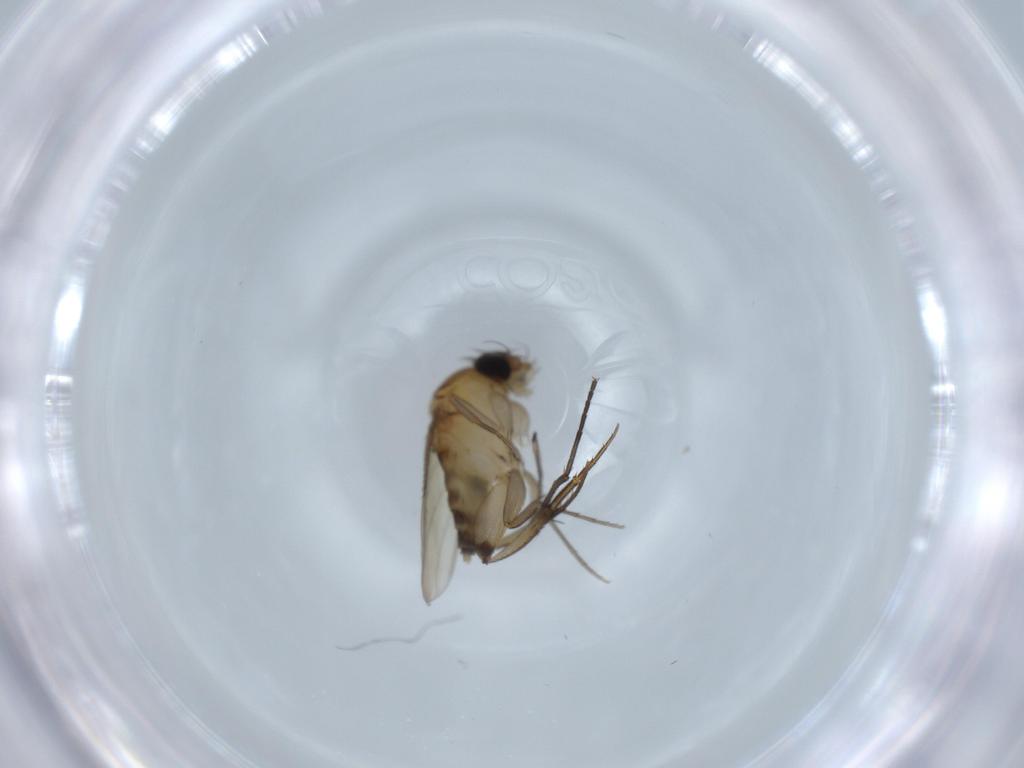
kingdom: Animalia
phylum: Arthropoda
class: Insecta
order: Diptera
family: Phoridae
